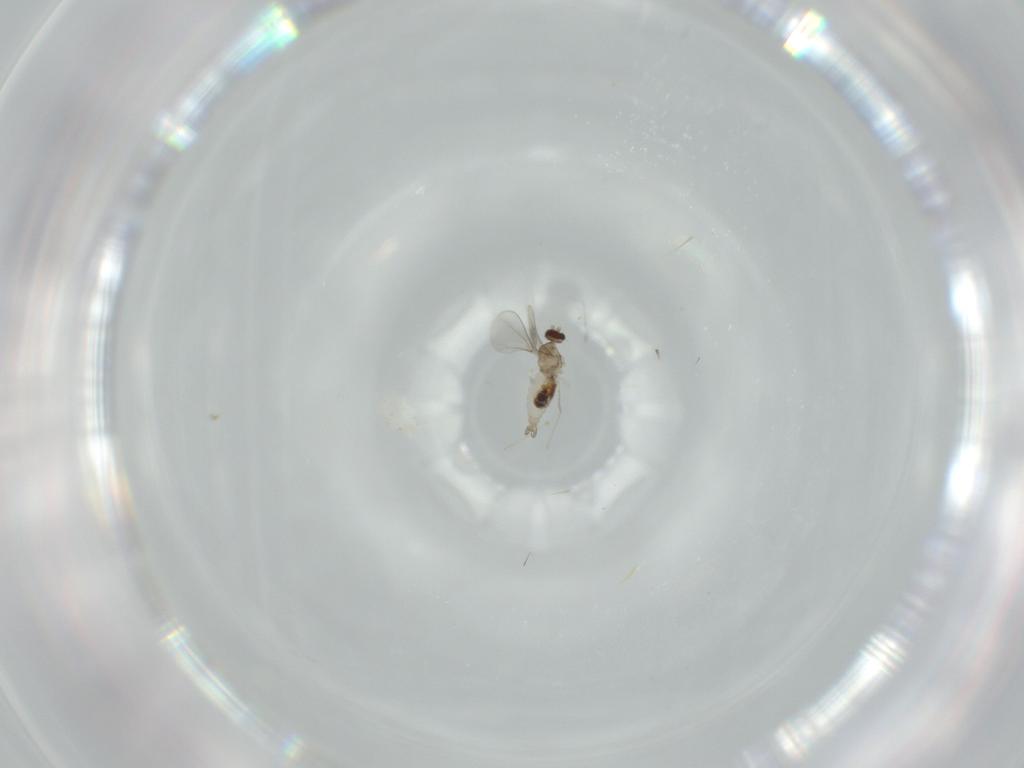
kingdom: Animalia
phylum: Arthropoda
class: Insecta
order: Diptera
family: Cecidomyiidae
